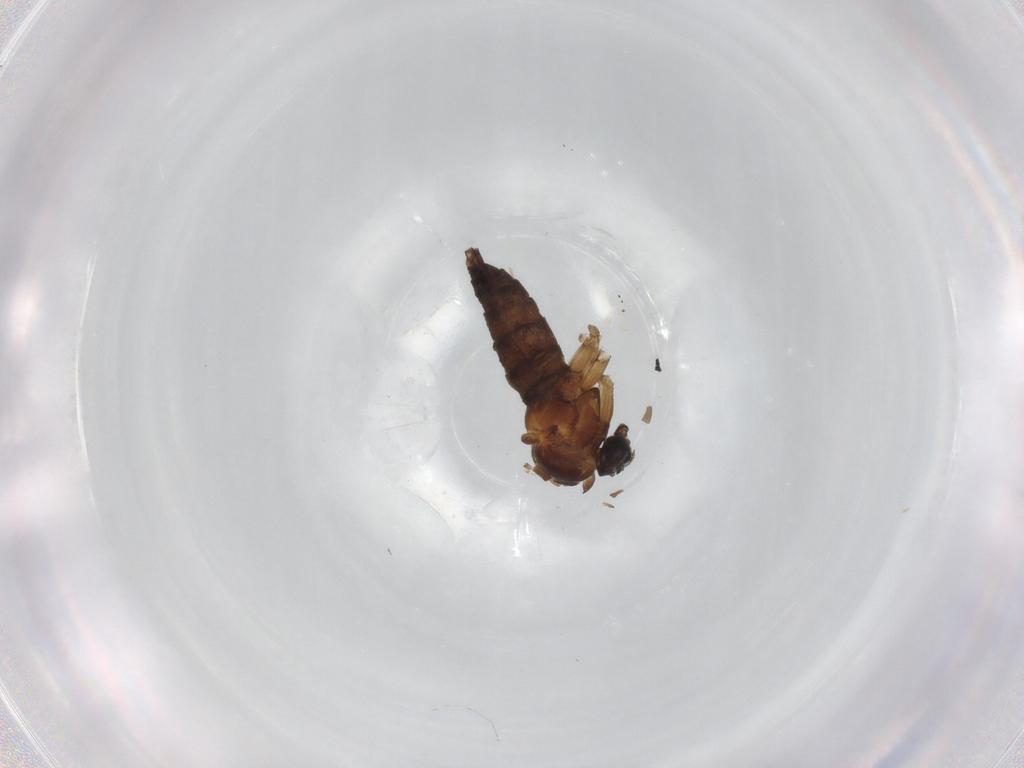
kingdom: Animalia
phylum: Arthropoda
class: Insecta
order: Diptera
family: Sciaridae
